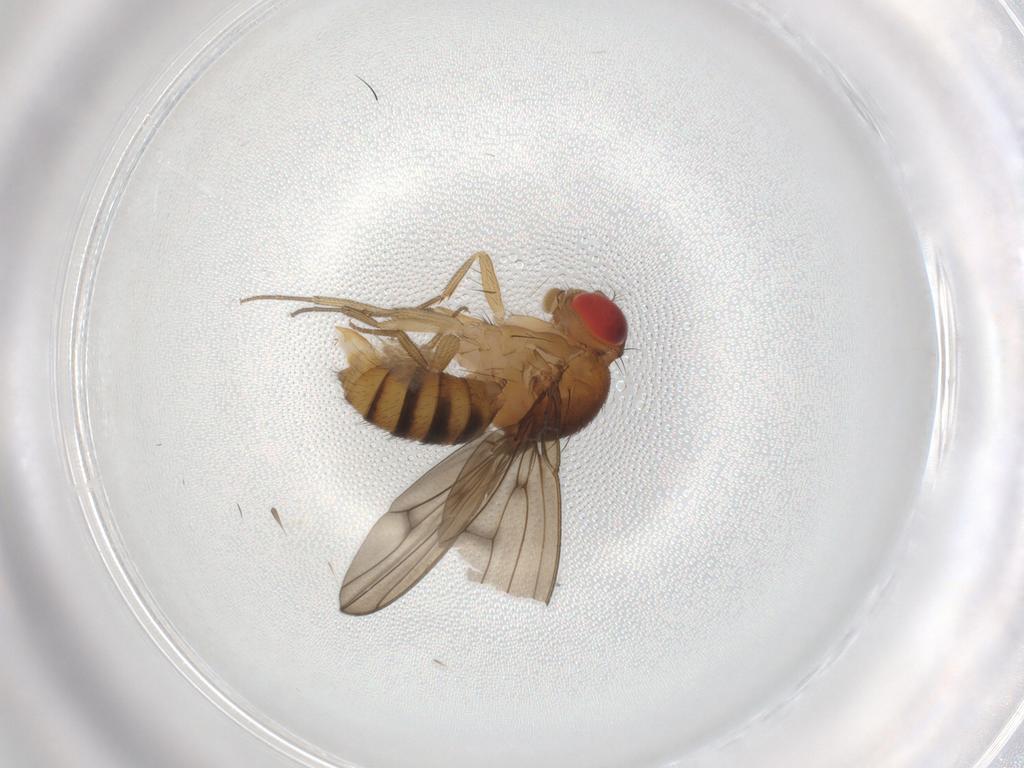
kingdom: Animalia
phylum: Arthropoda
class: Insecta
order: Diptera
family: Drosophilidae
